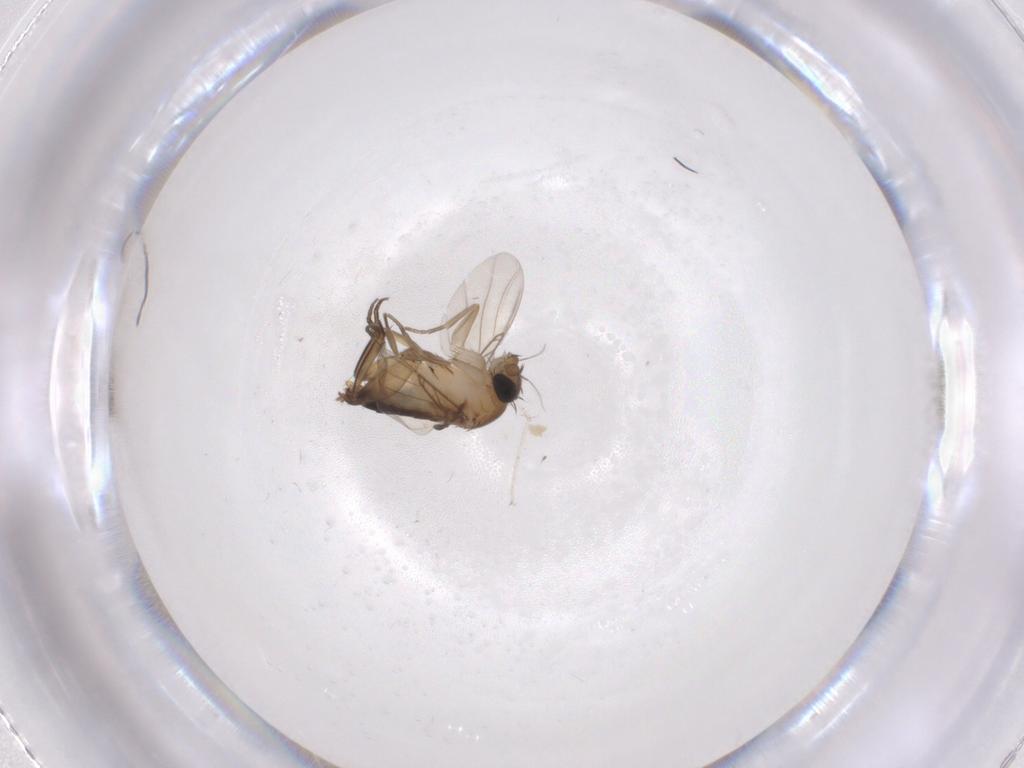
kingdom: Animalia
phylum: Arthropoda
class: Insecta
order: Diptera
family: Phoridae
